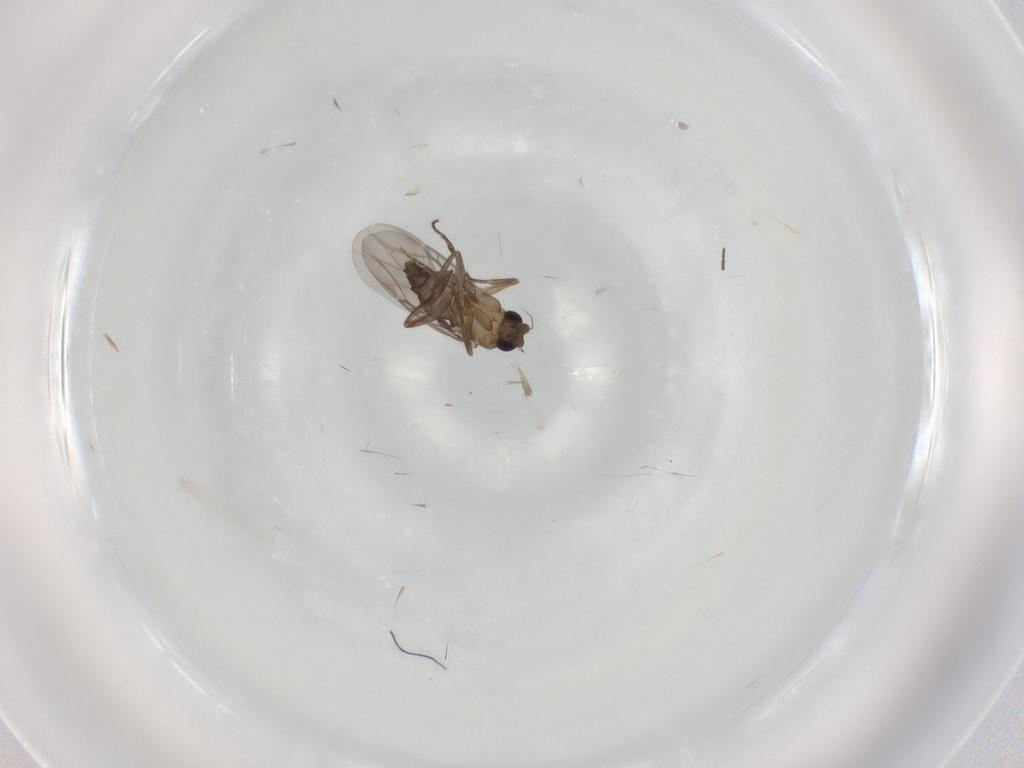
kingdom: Animalia
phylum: Arthropoda
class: Insecta
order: Diptera
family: Phoridae
